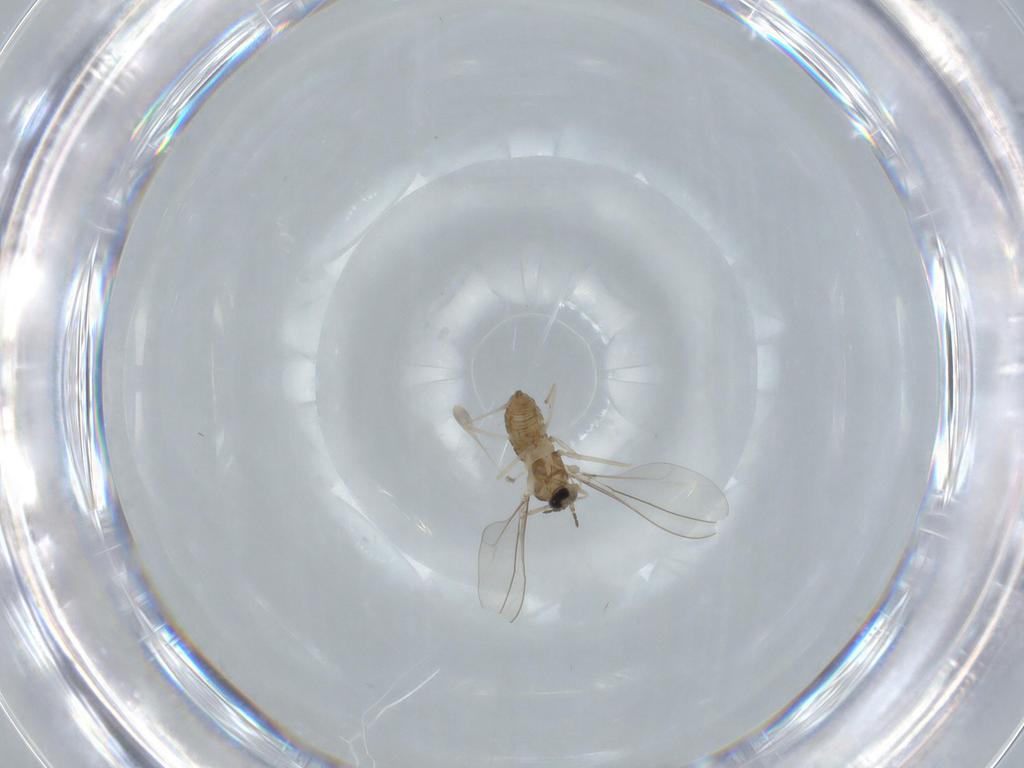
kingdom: Animalia
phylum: Arthropoda
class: Insecta
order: Diptera
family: Cecidomyiidae
